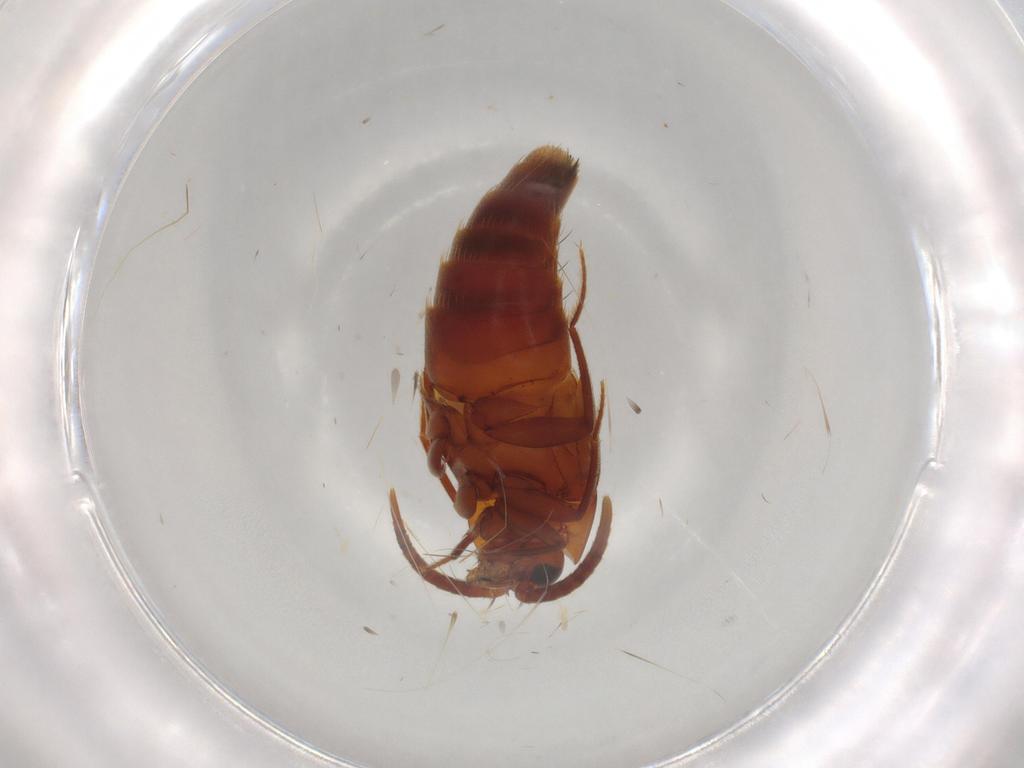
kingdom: Animalia
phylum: Arthropoda
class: Insecta
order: Coleoptera
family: Staphylinidae
